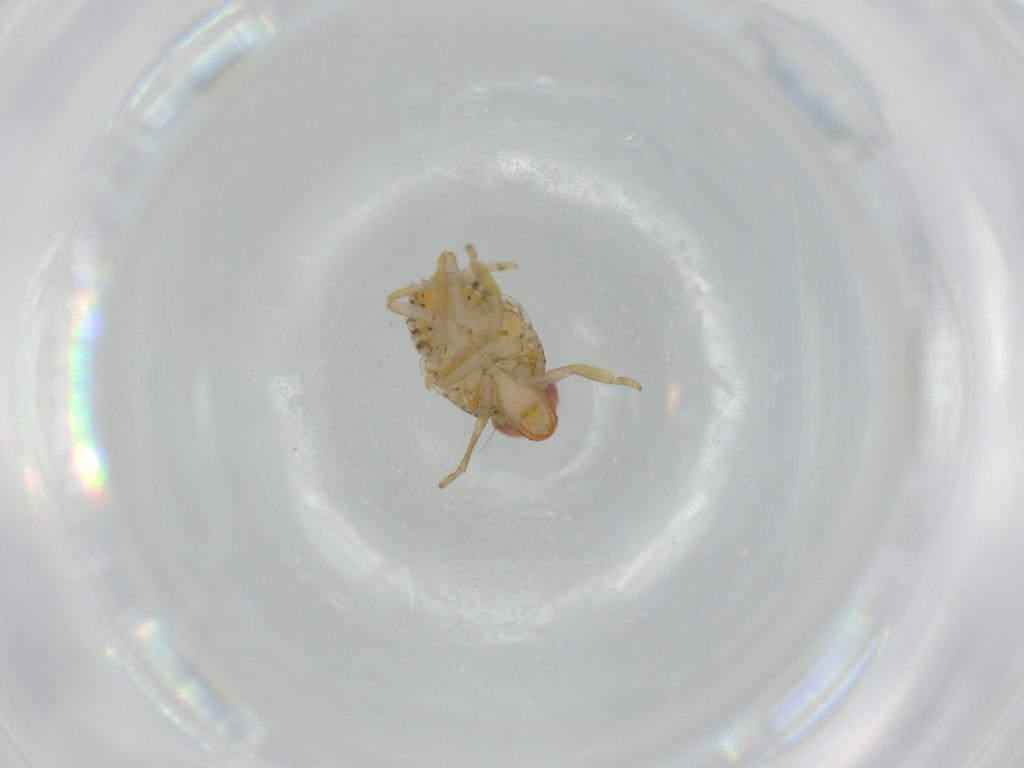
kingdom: Animalia
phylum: Arthropoda
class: Insecta
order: Hemiptera
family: Fulgoroidea_incertae_sedis
